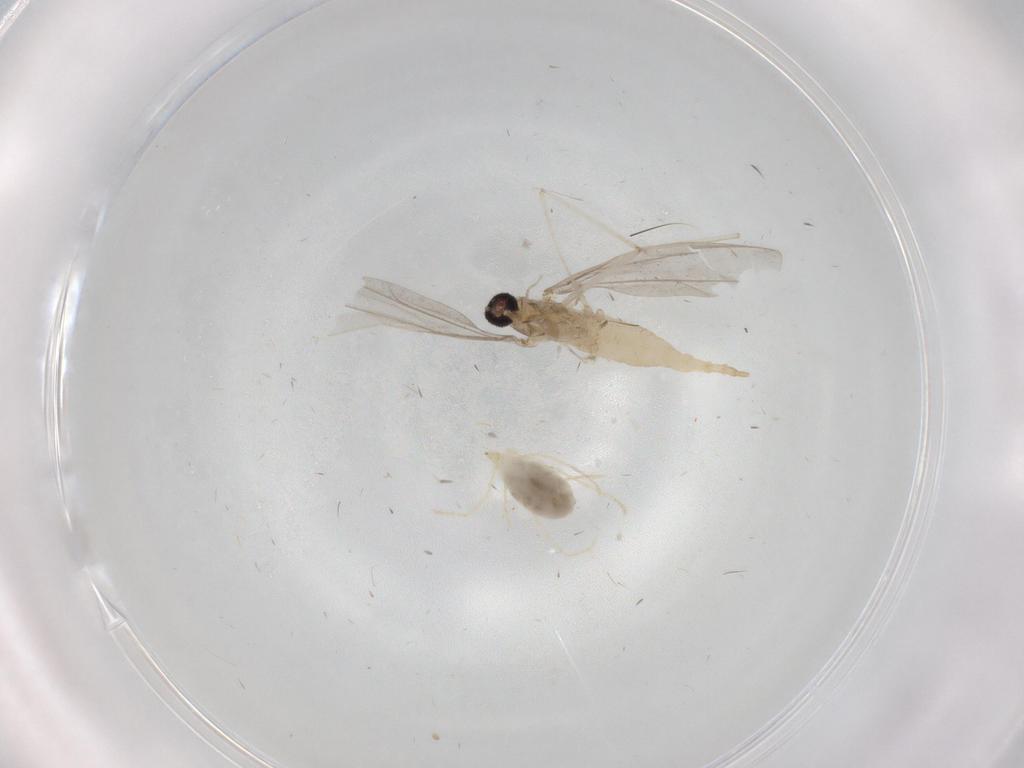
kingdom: Animalia
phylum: Arthropoda
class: Insecta
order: Diptera
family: Cecidomyiidae
